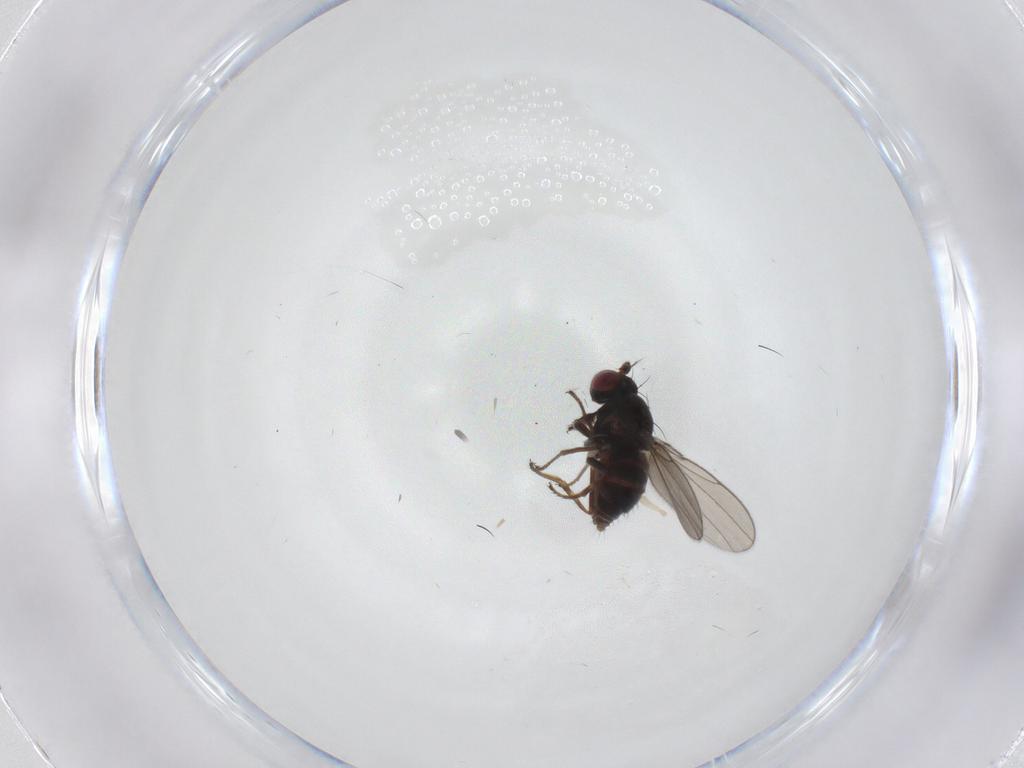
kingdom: Animalia
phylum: Arthropoda
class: Insecta
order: Diptera
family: Ephydridae
